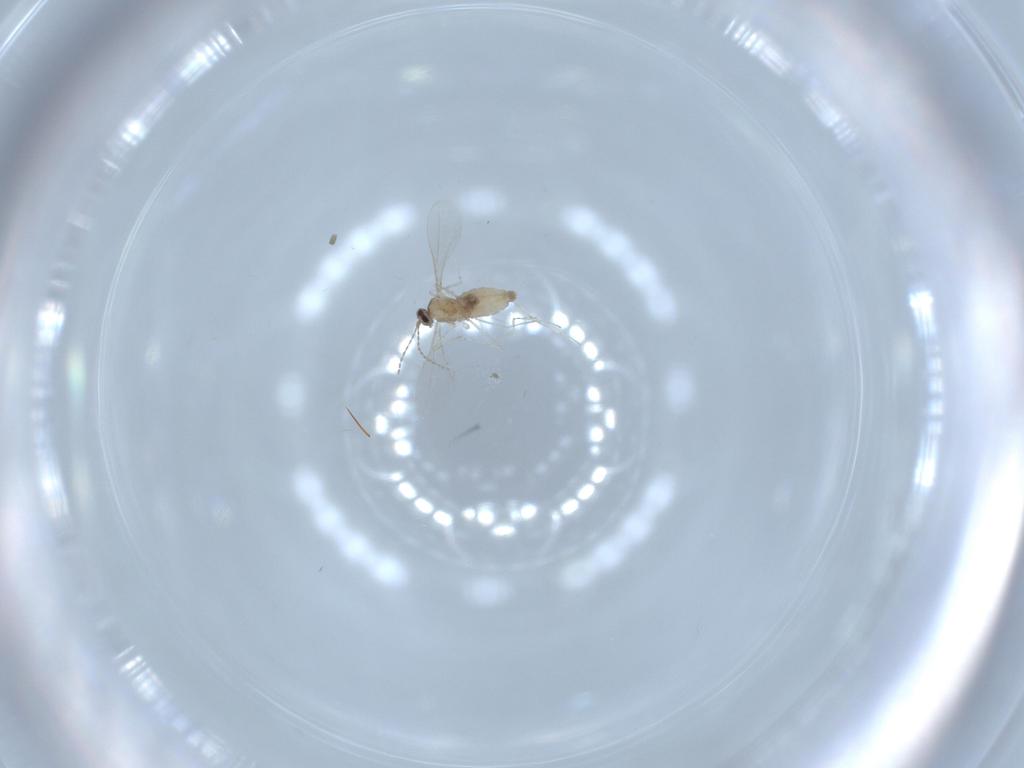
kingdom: Animalia
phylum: Arthropoda
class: Insecta
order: Diptera
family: Cecidomyiidae
